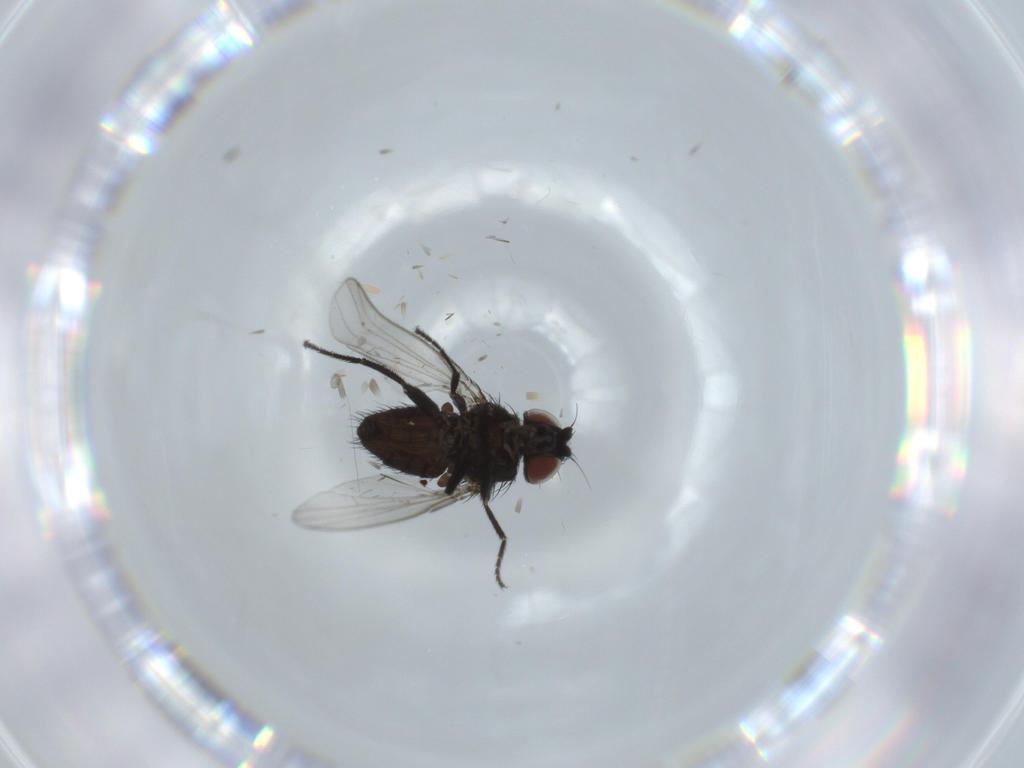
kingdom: Animalia
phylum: Arthropoda
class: Insecta
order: Diptera
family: Milichiidae
